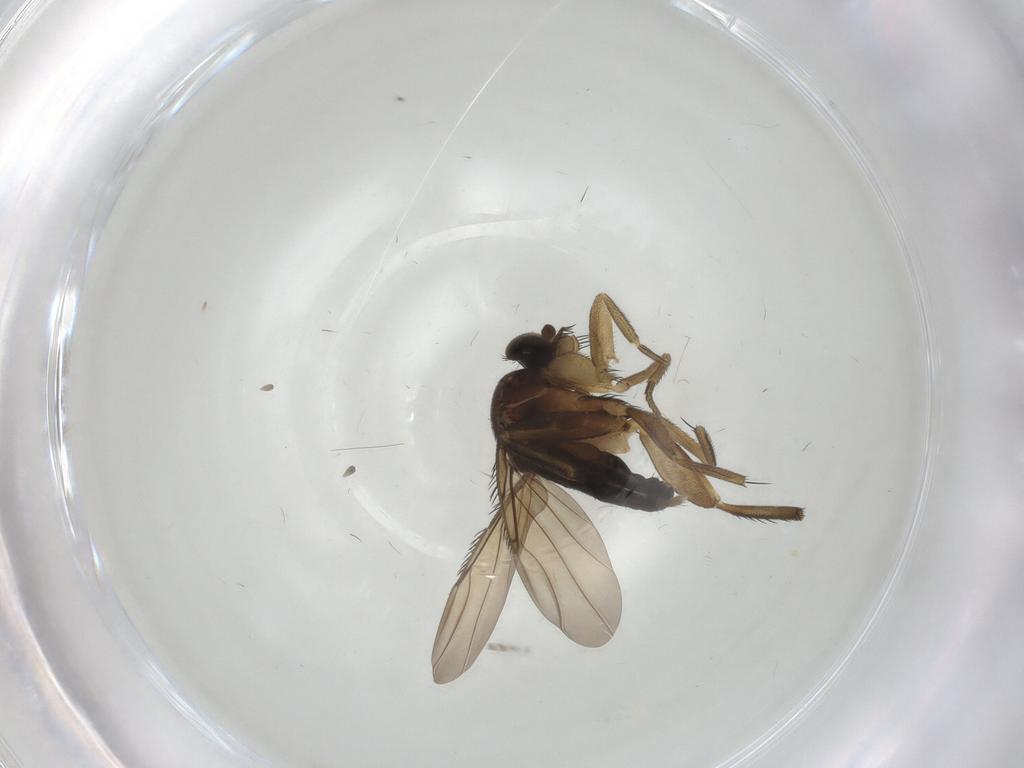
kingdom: Animalia
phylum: Arthropoda
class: Insecta
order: Diptera
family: Phoridae
